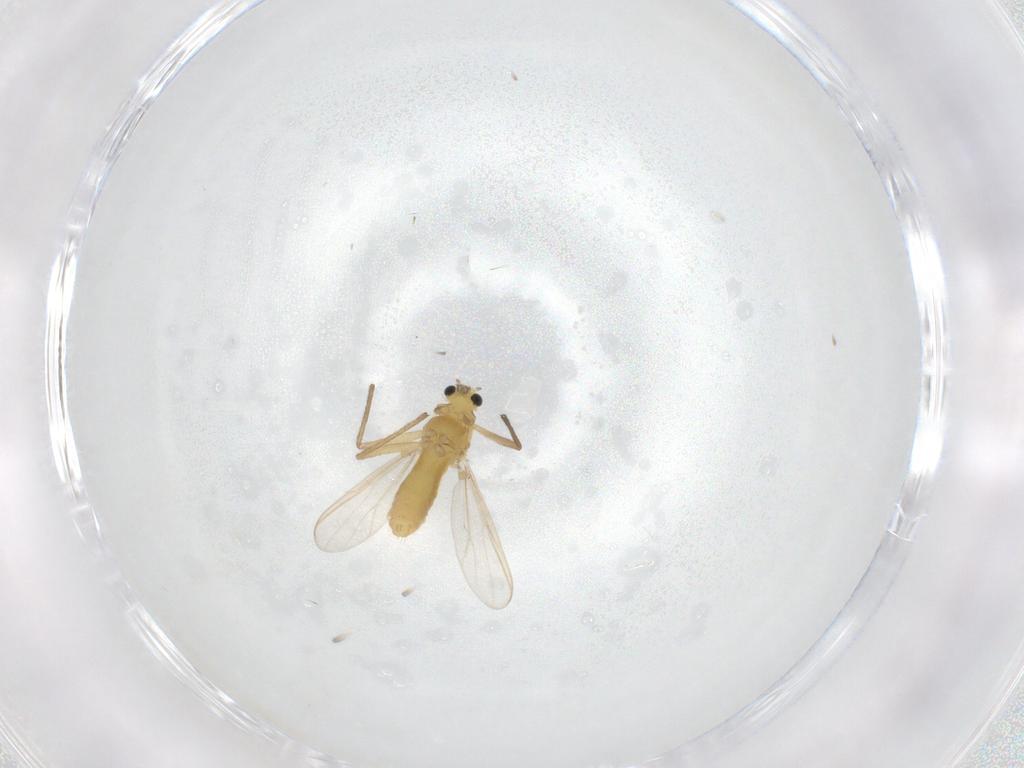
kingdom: Animalia
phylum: Arthropoda
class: Insecta
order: Diptera
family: Chironomidae
